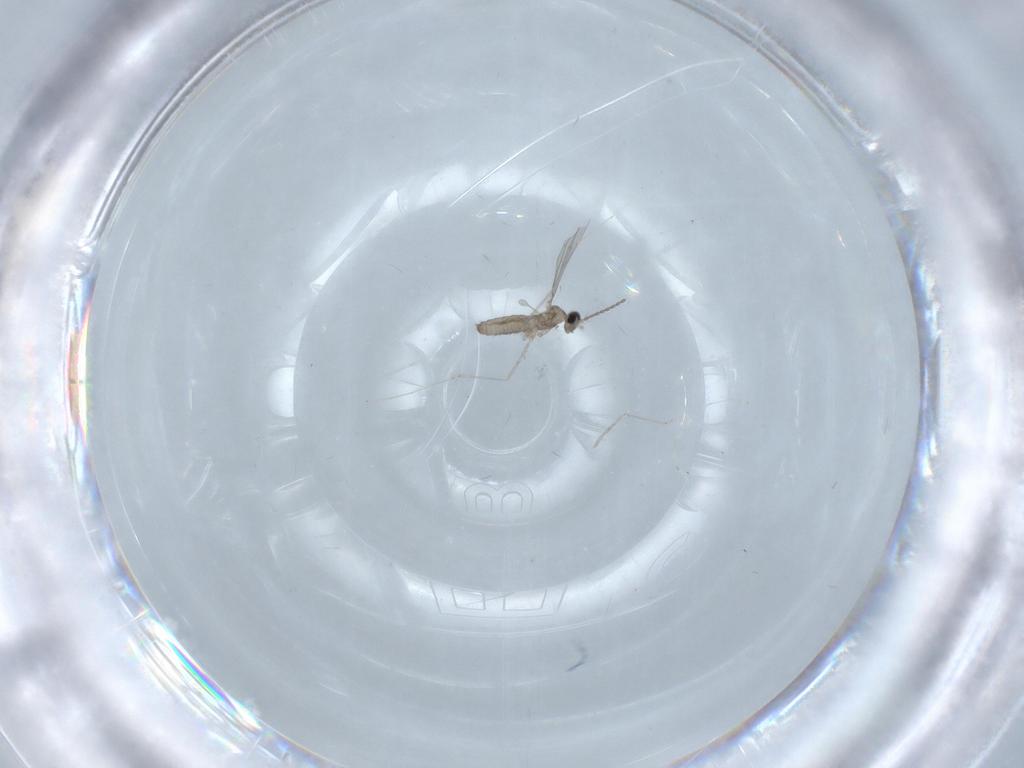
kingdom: Animalia
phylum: Arthropoda
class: Insecta
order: Diptera
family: Cecidomyiidae
